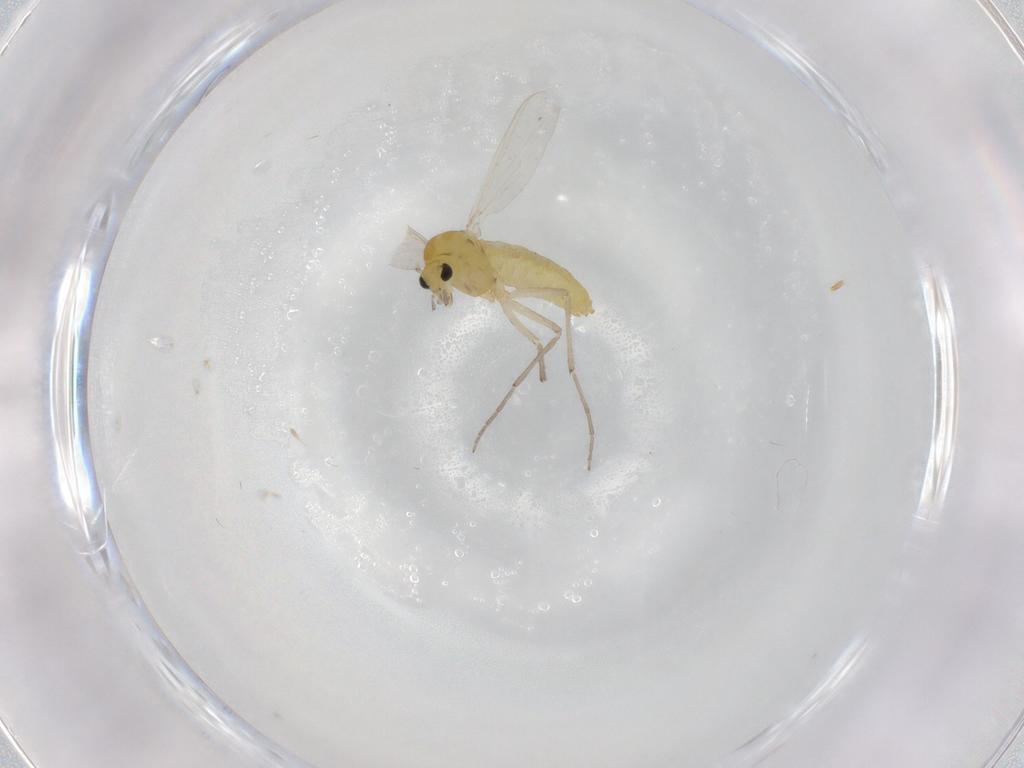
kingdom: Animalia
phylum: Arthropoda
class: Insecta
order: Diptera
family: Chironomidae
